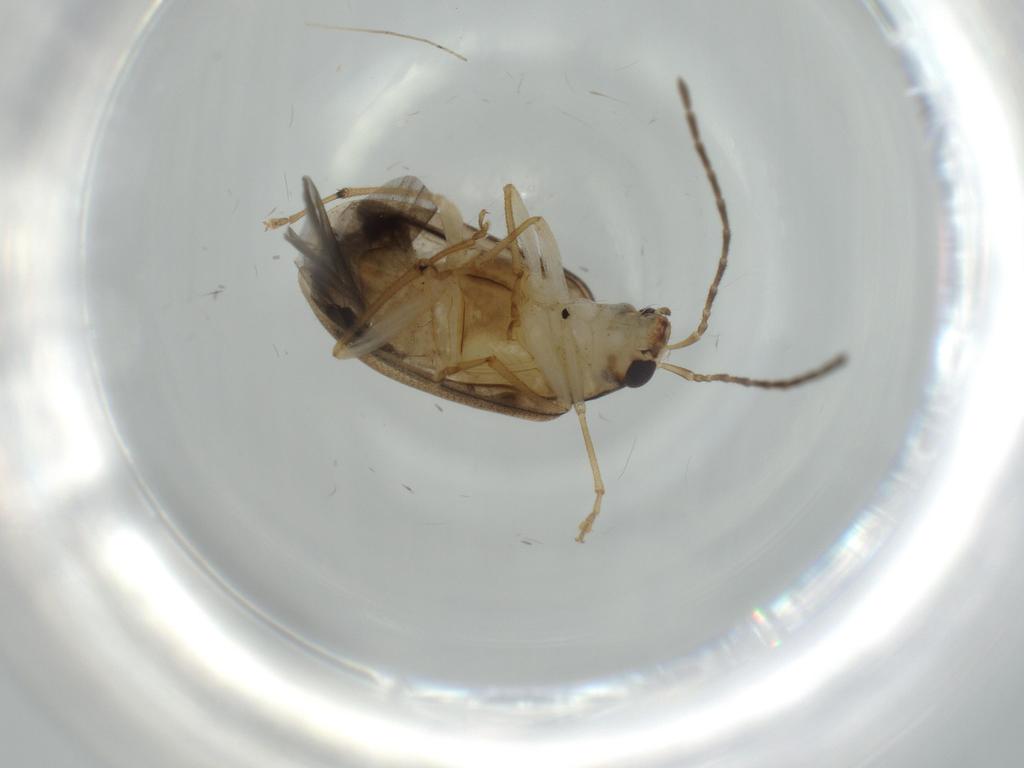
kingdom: Animalia
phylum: Arthropoda
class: Insecta
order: Coleoptera
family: Chrysomelidae
